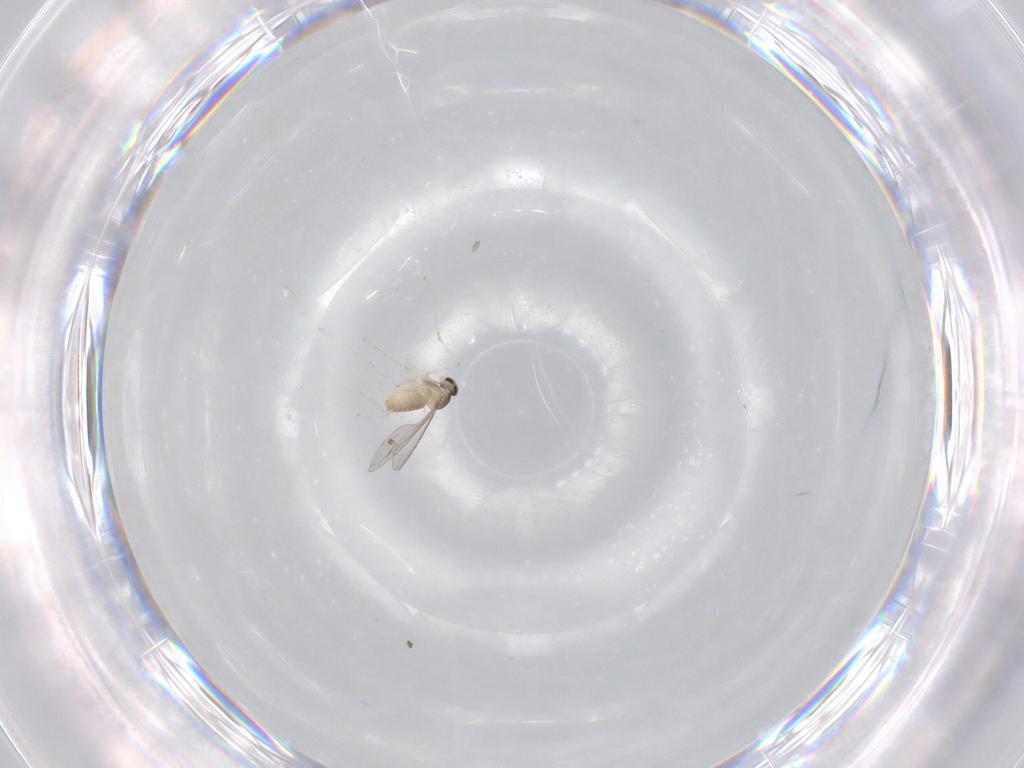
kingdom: Animalia
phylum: Arthropoda
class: Insecta
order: Diptera
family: Cecidomyiidae
